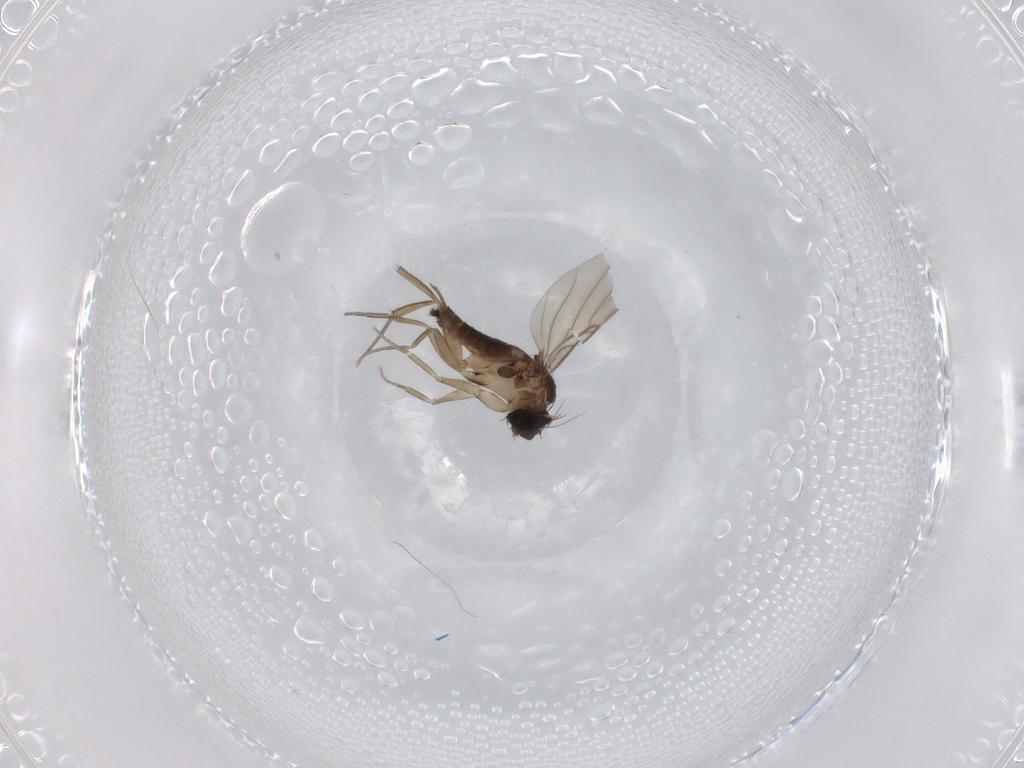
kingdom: Animalia
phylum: Arthropoda
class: Insecta
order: Diptera
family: Phoridae
